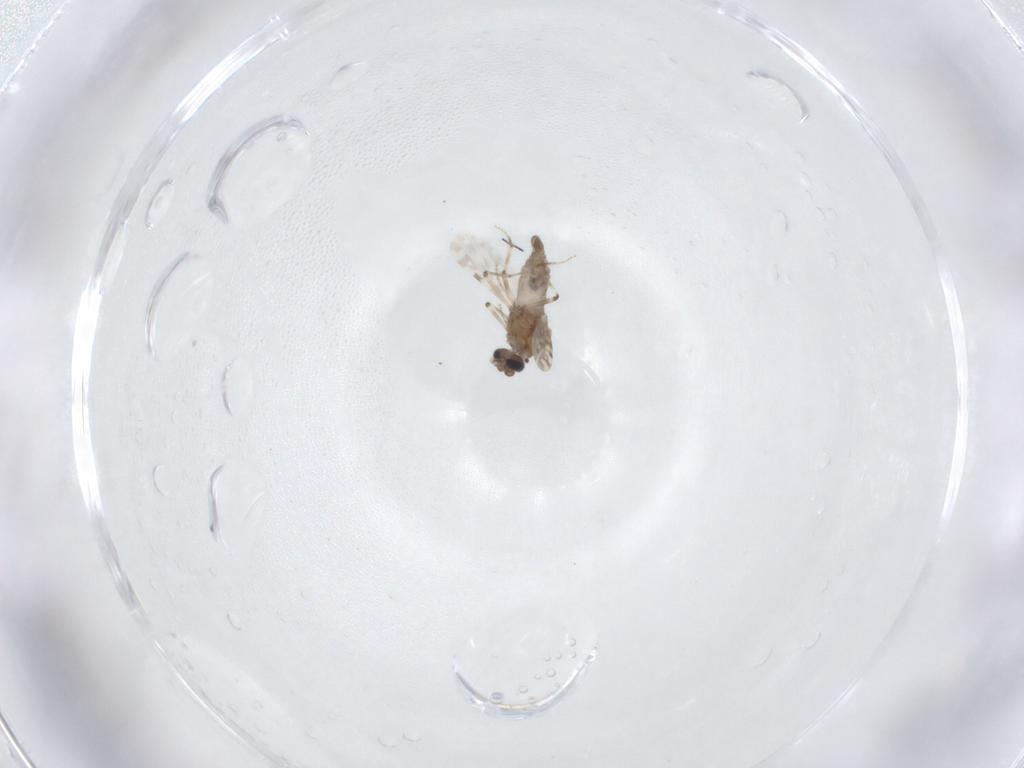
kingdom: Animalia
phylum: Arthropoda
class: Insecta
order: Diptera
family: Ceratopogonidae
